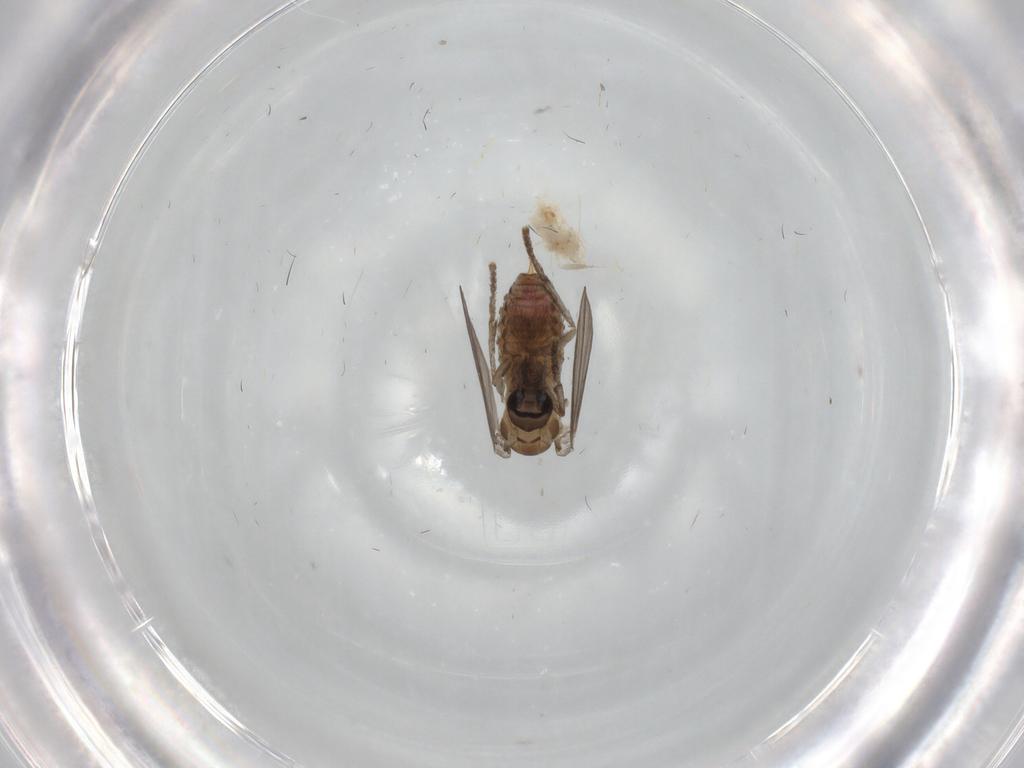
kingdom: Animalia
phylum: Arthropoda
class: Insecta
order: Diptera
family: Psychodidae
